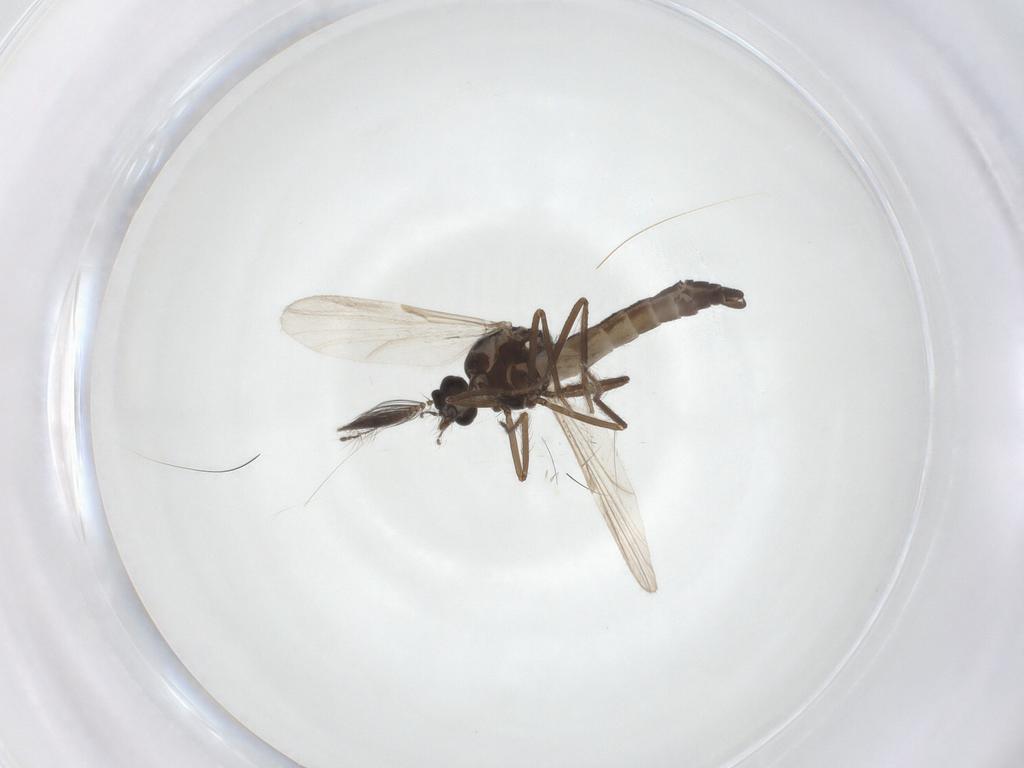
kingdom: Animalia
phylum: Arthropoda
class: Insecta
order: Diptera
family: Ceratopogonidae
